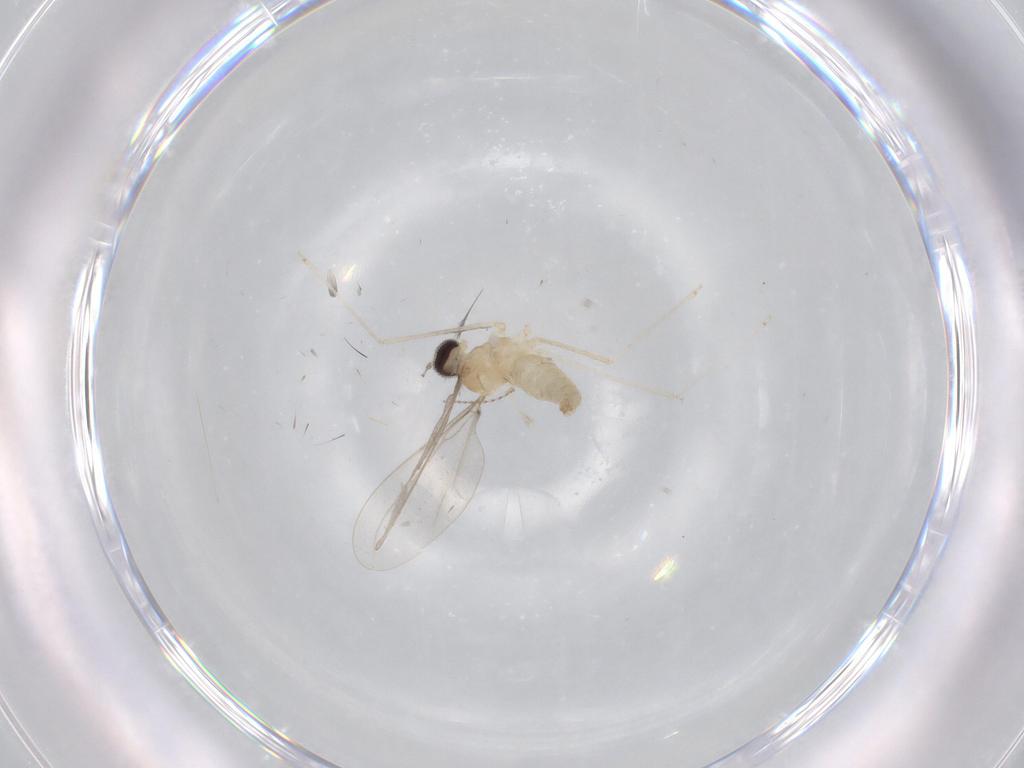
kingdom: Animalia
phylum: Arthropoda
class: Insecta
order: Diptera
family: Cecidomyiidae
